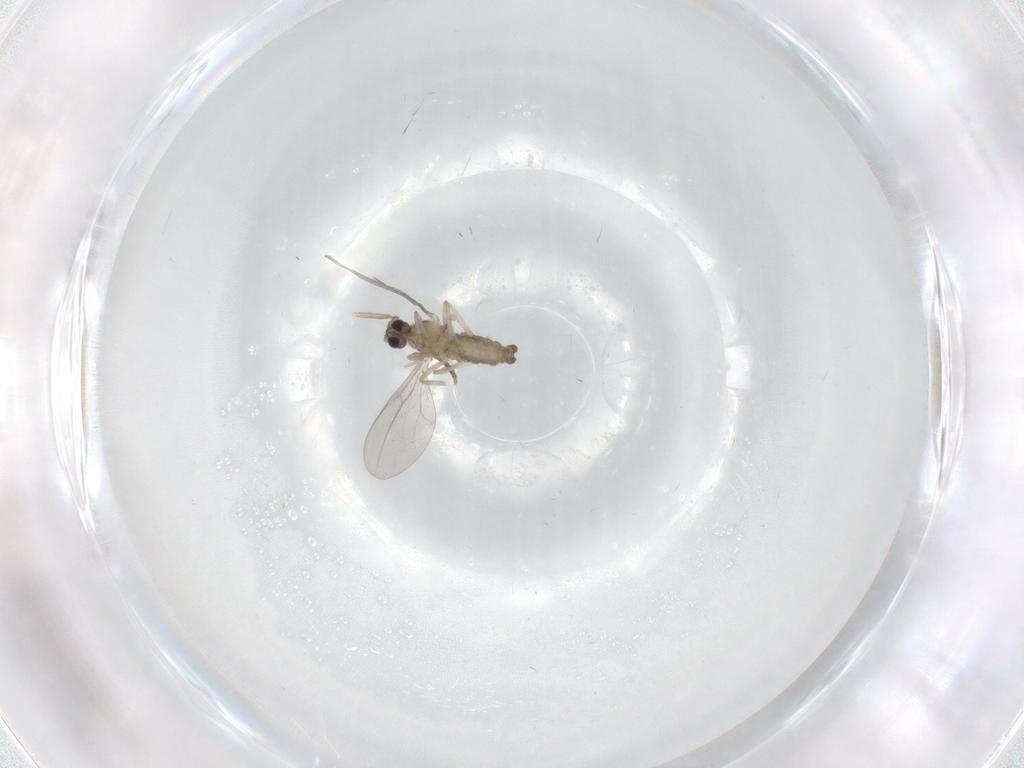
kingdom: Animalia
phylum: Arthropoda
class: Insecta
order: Diptera
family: Cecidomyiidae
